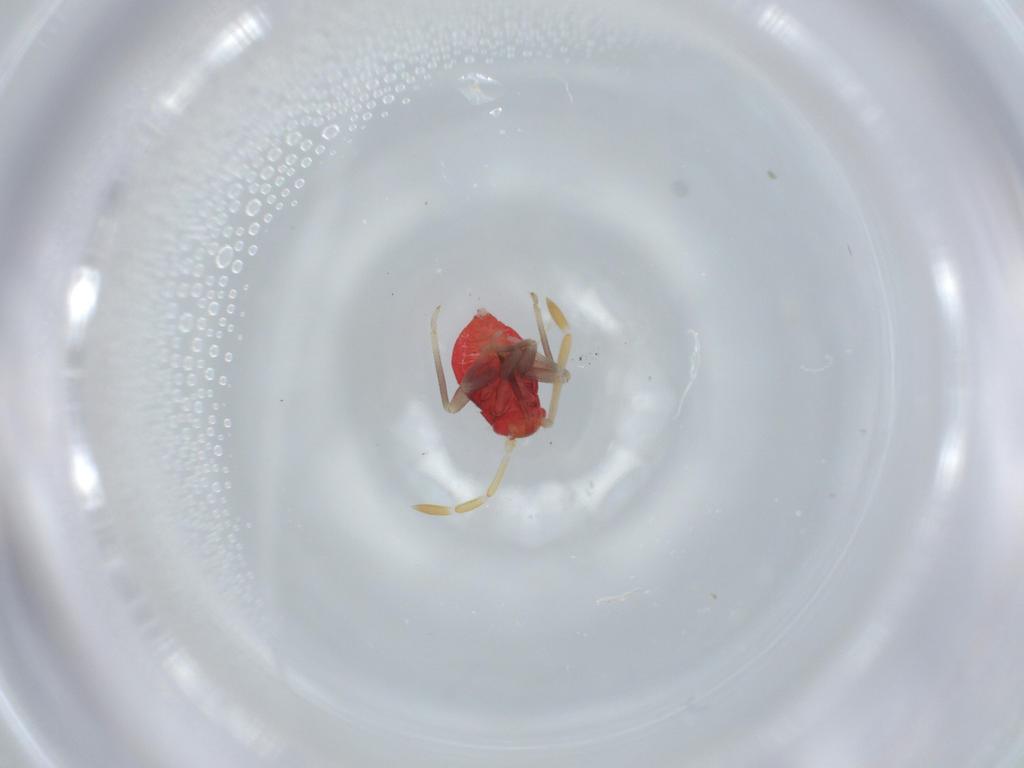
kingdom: Animalia
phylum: Arthropoda
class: Insecta
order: Hemiptera
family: Miridae
